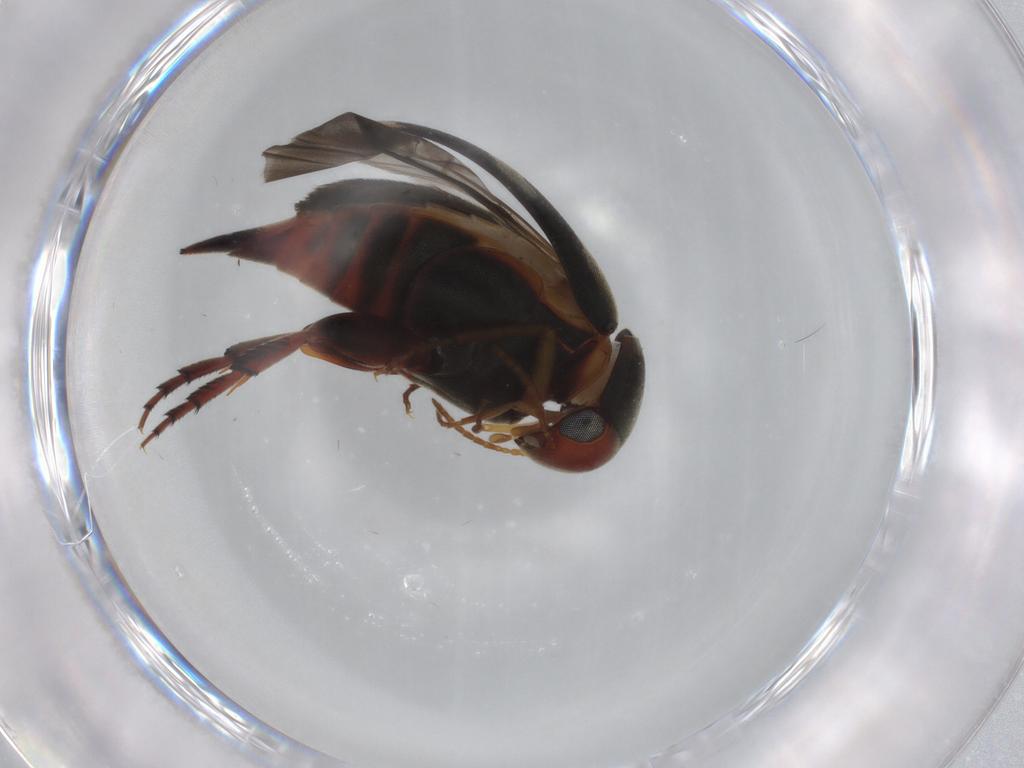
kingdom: Animalia
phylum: Arthropoda
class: Insecta
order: Coleoptera
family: Mordellidae
